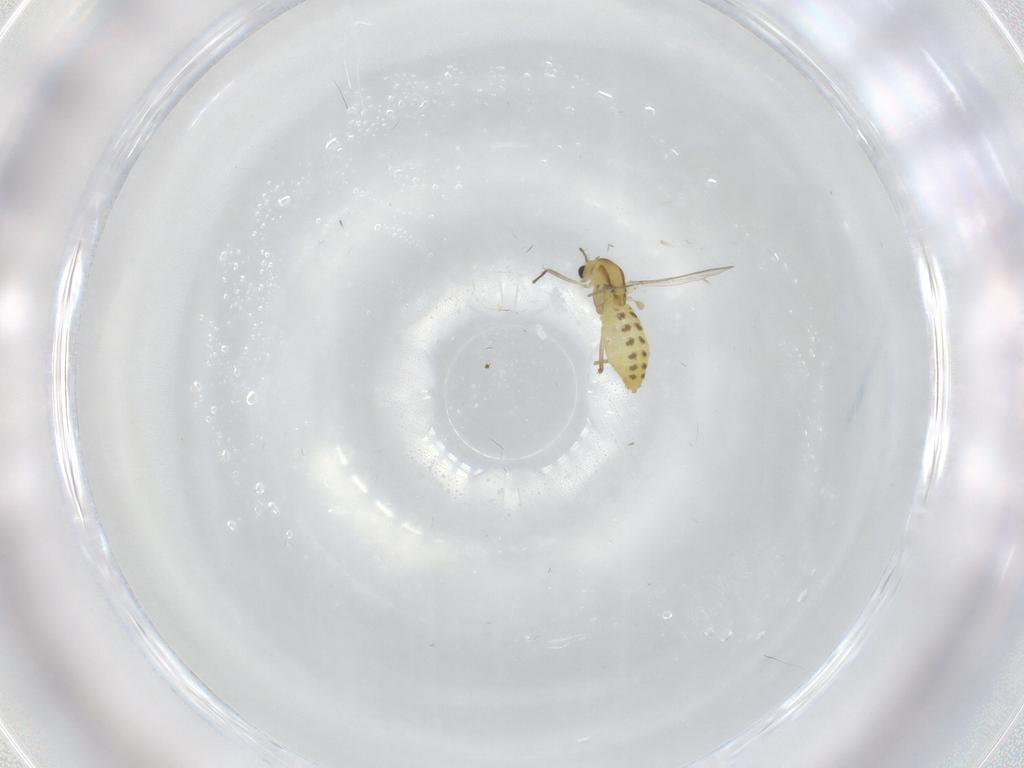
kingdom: Animalia
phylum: Arthropoda
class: Insecta
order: Diptera
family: Chironomidae
